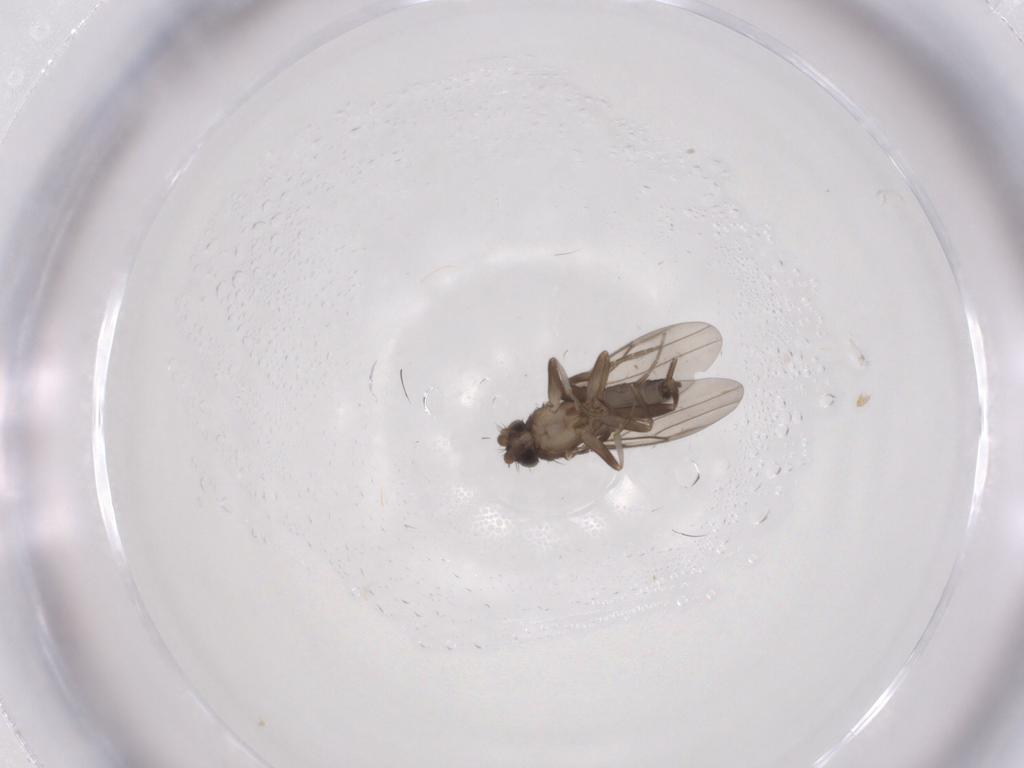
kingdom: Animalia
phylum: Arthropoda
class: Insecta
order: Diptera
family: Phoridae
